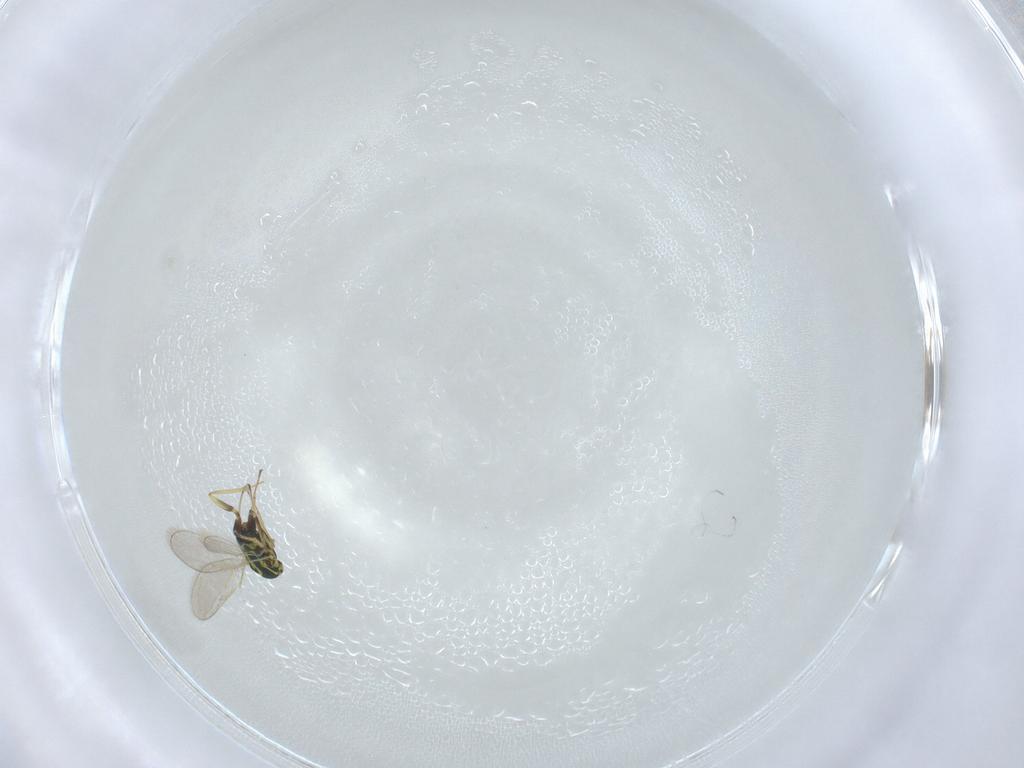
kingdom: Animalia
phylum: Arthropoda
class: Insecta
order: Hymenoptera
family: Eulophidae
